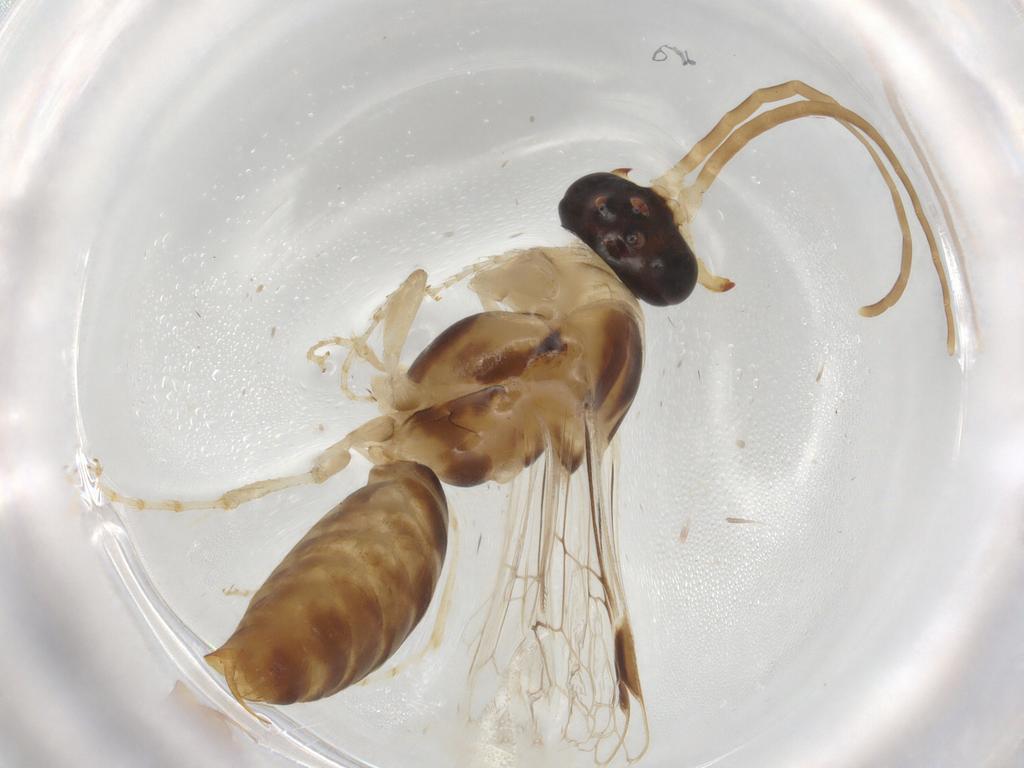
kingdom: Animalia
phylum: Arthropoda
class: Insecta
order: Hymenoptera
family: Formicidae
